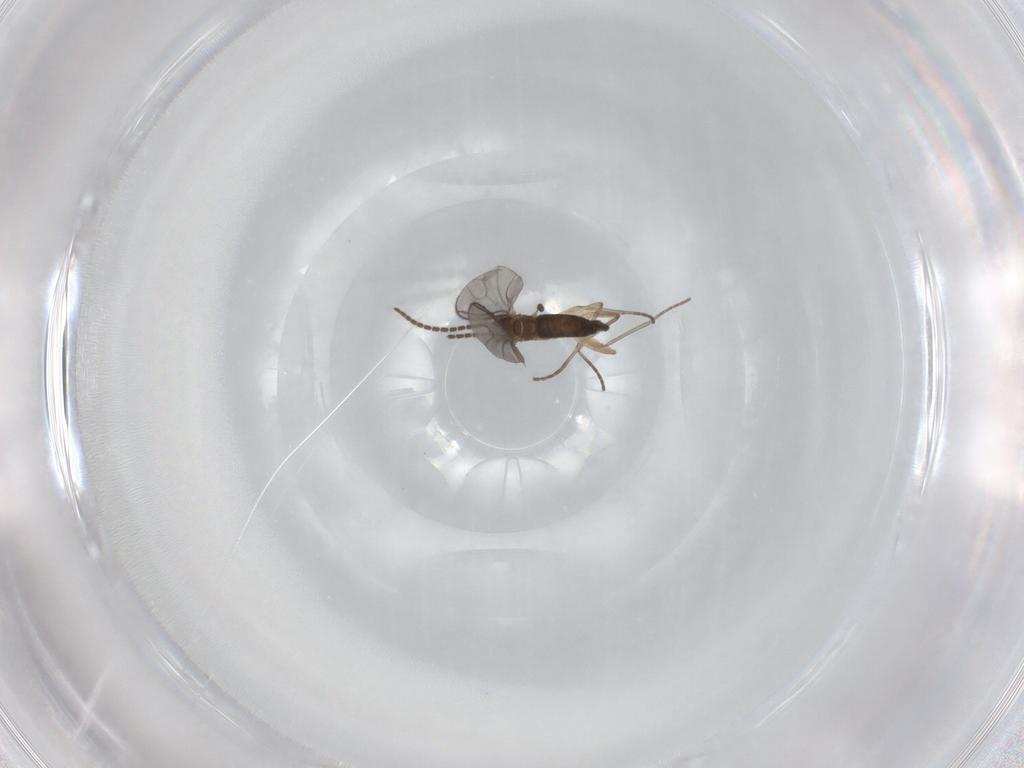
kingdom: Animalia
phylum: Arthropoda
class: Insecta
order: Diptera
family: Sciaridae
